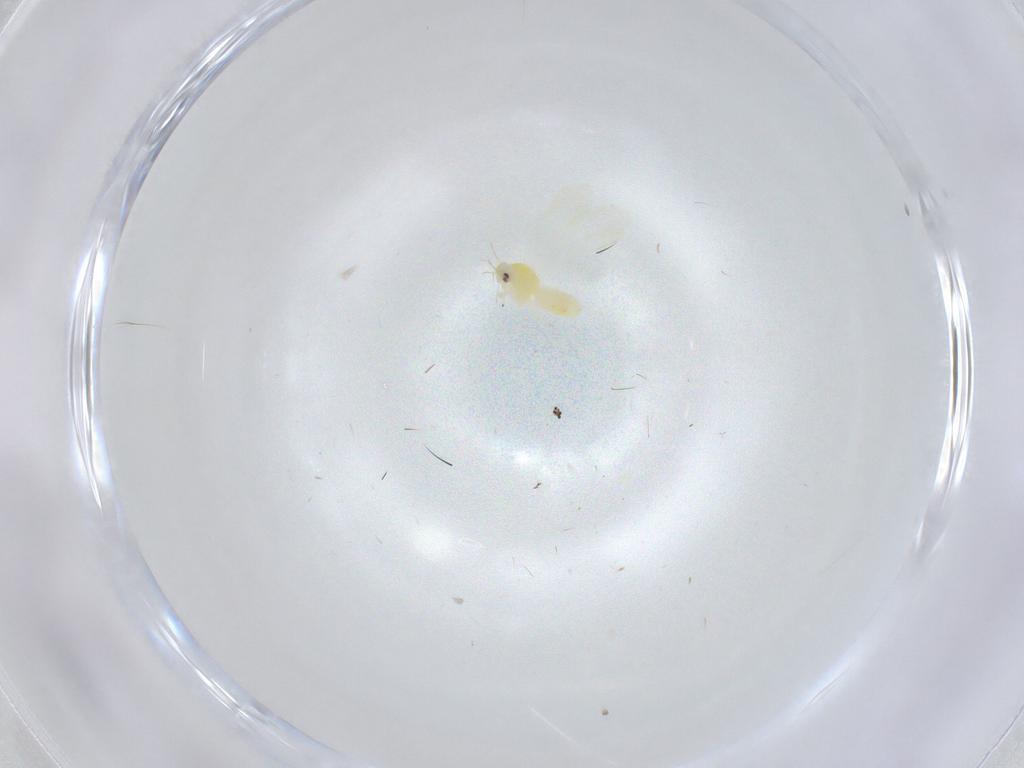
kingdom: Animalia
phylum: Arthropoda
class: Insecta
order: Hemiptera
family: Aleyrodidae
